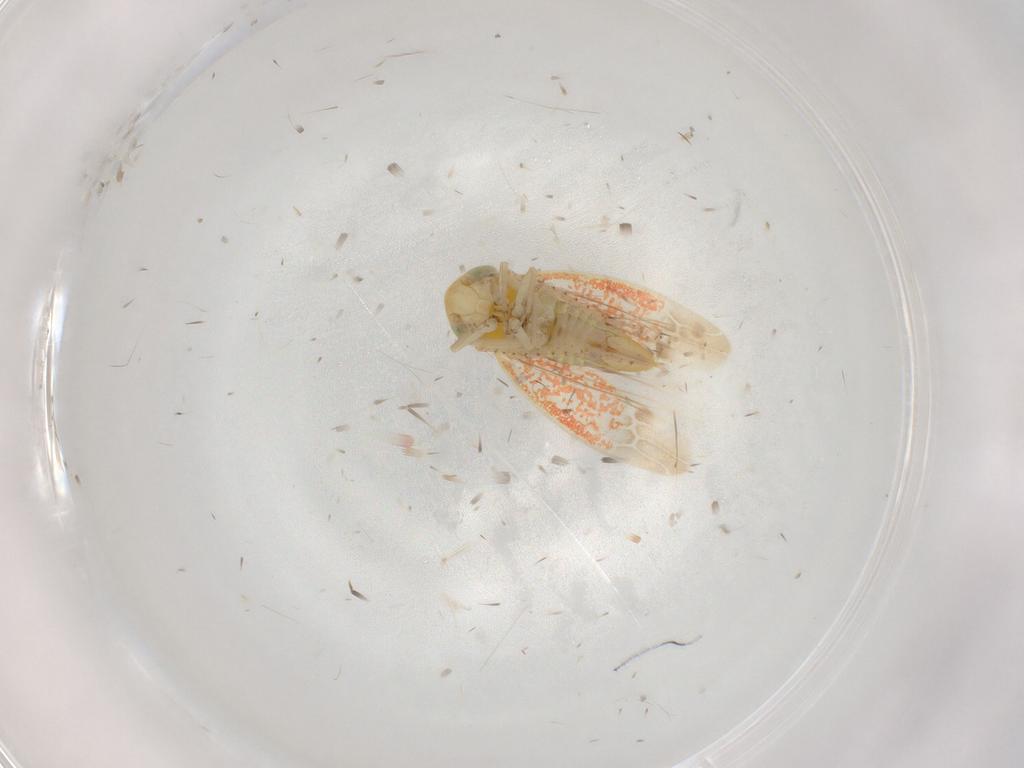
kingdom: Animalia
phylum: Arthropoda
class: Insecta
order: Hemiptera
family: Cicadellidae
